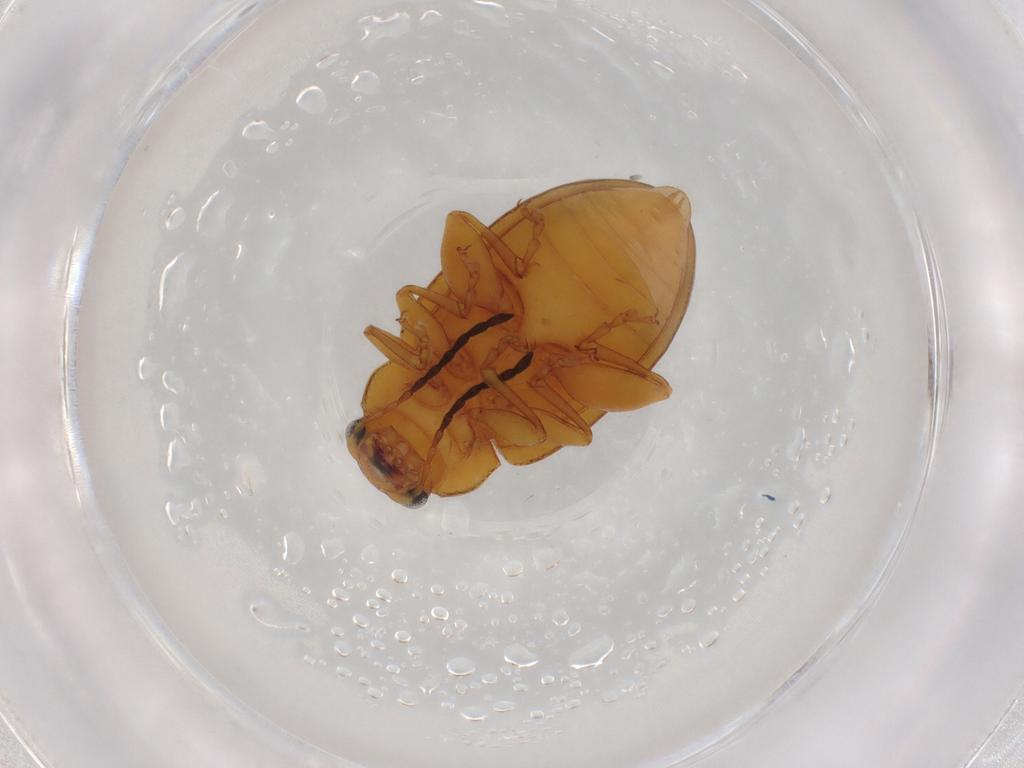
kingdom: Animalia
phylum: Arthropoda
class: Insecta
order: Coleoptera
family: Chrysomelidae
